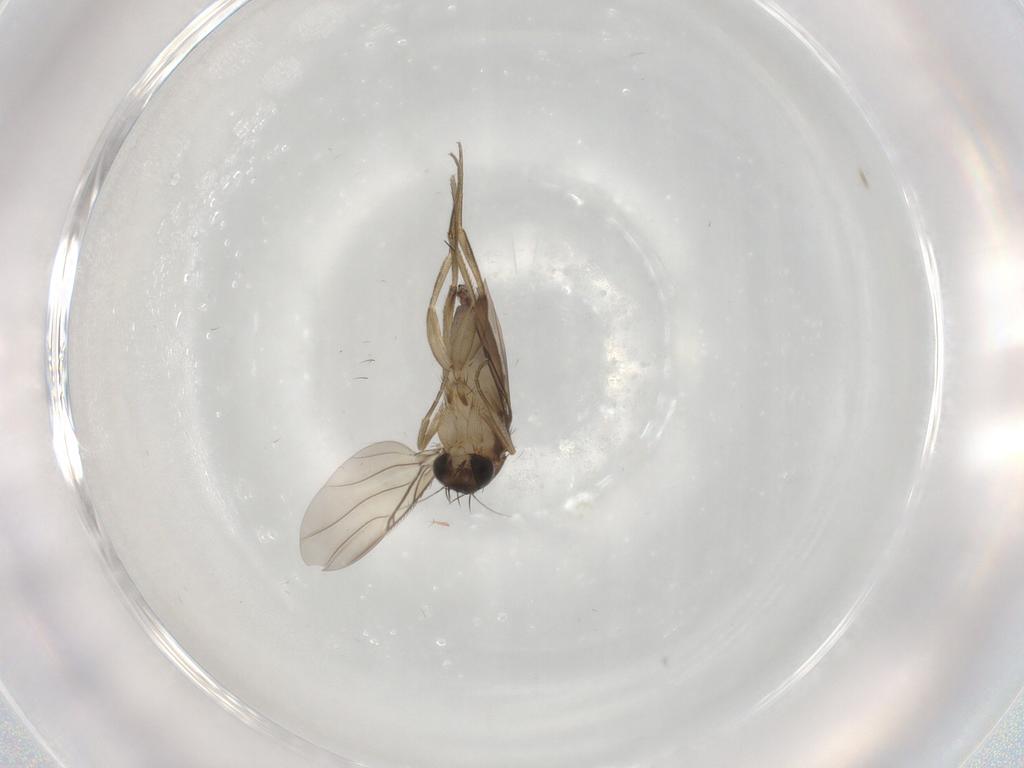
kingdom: Animalia
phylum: Arthropoda
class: Insecta
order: Diptera
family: Phoridae
